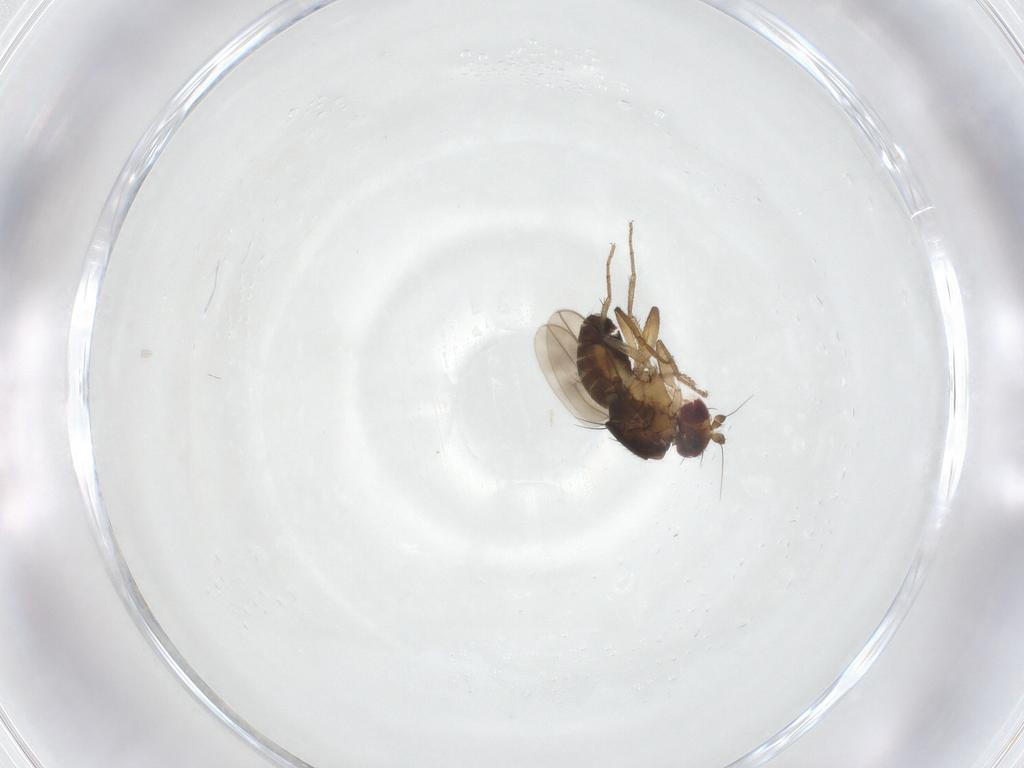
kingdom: Animalia
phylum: Arthropoda
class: Insecta
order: Diptera
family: Sphaeroceridae
